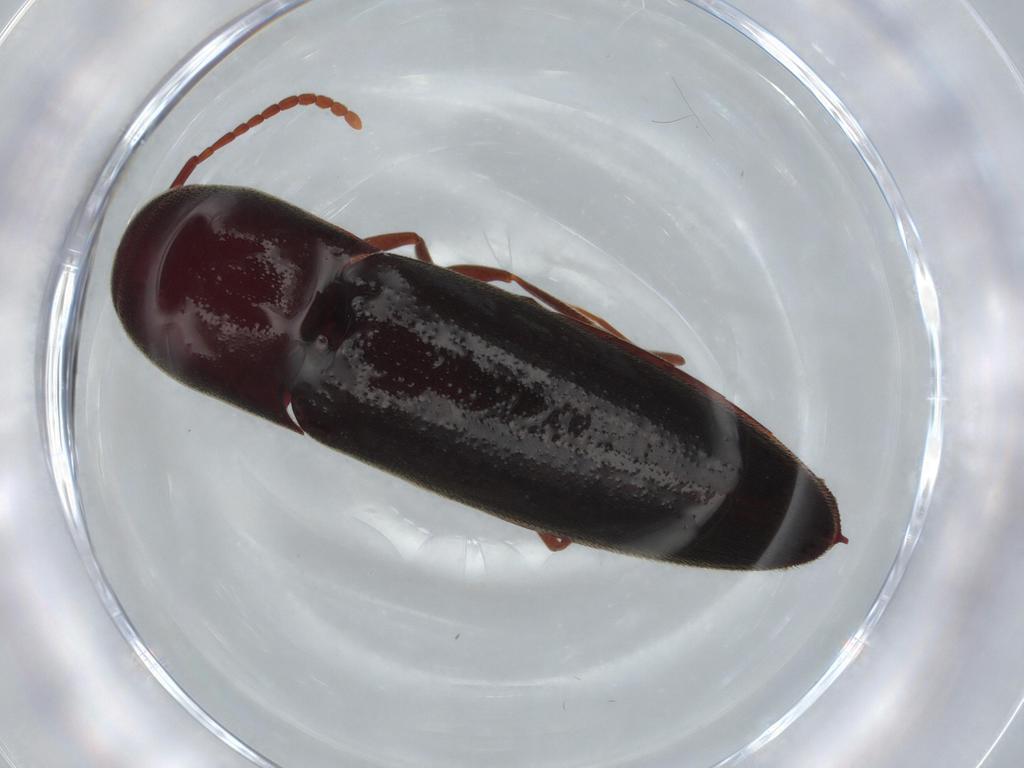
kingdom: Animalia
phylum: Arthropoda
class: Insecta
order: Coleoptera
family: Eucnemidae
